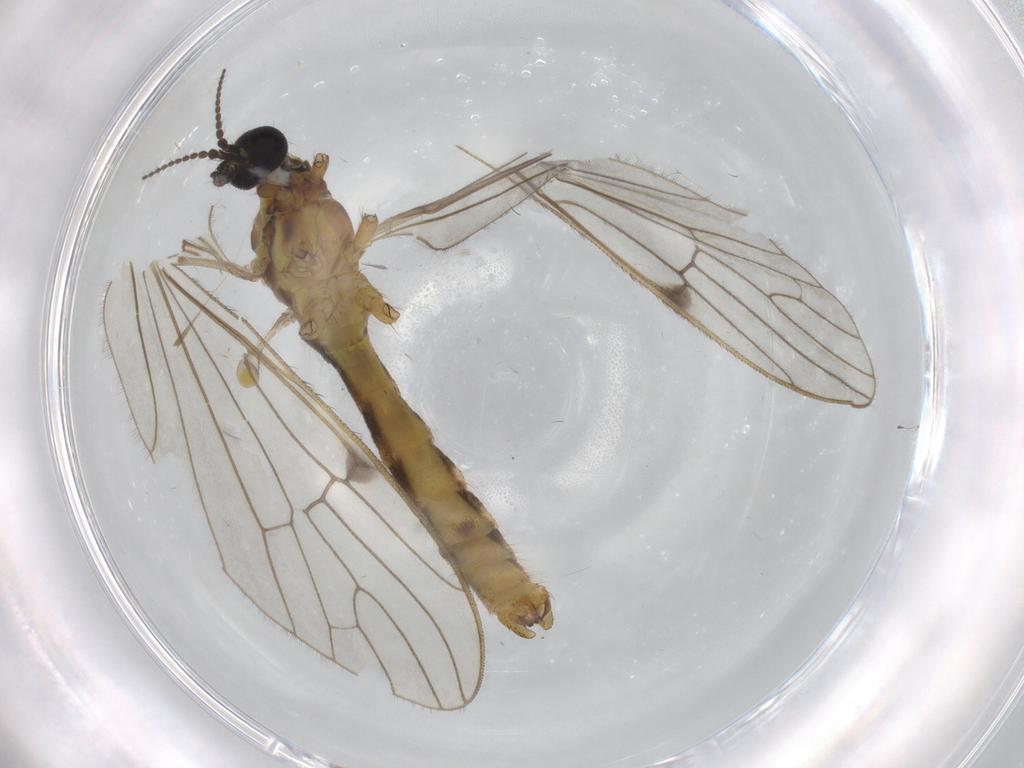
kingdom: Animalia
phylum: Arthropoda
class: Insecta
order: Diptera
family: Limoniidae
